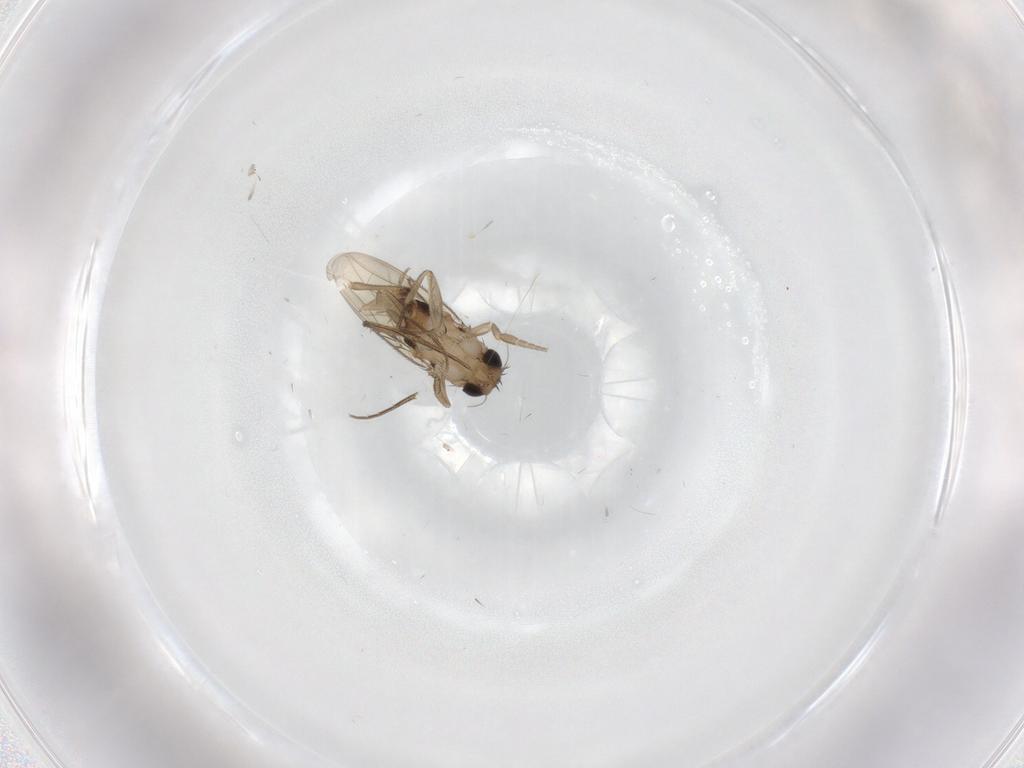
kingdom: Animalia
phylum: Arthropoda
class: Insecta
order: Diptera
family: Phoridae
